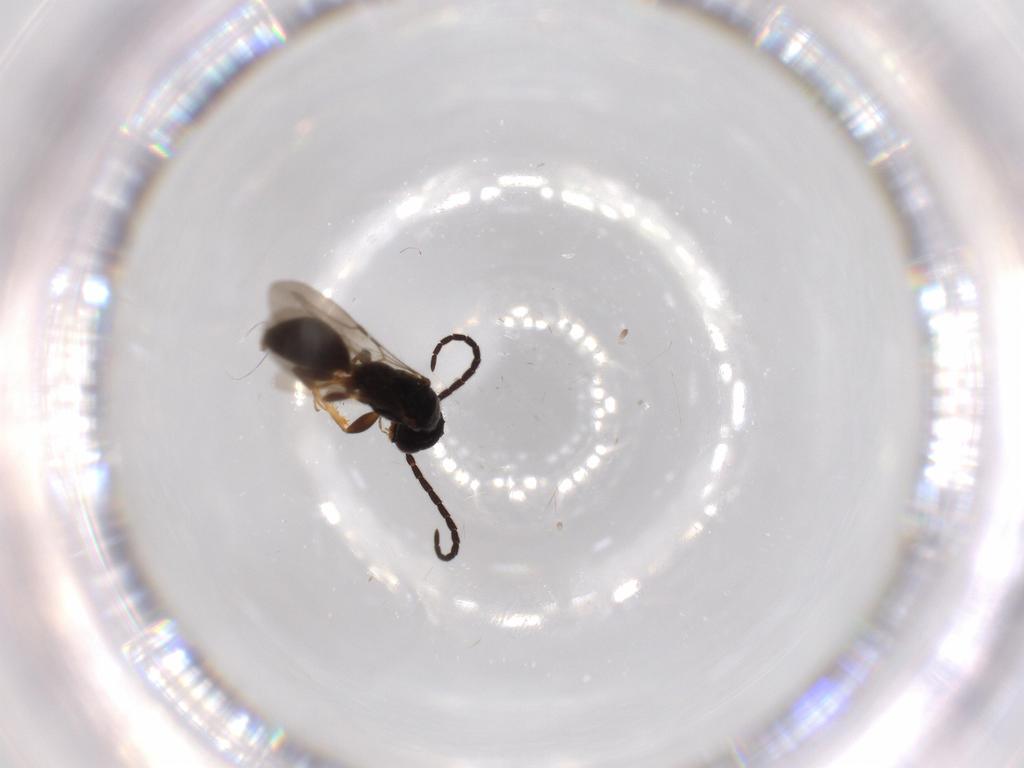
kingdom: Animalia
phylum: Arthropoda
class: Insecta
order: Hymenoptera
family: Bethylidae
